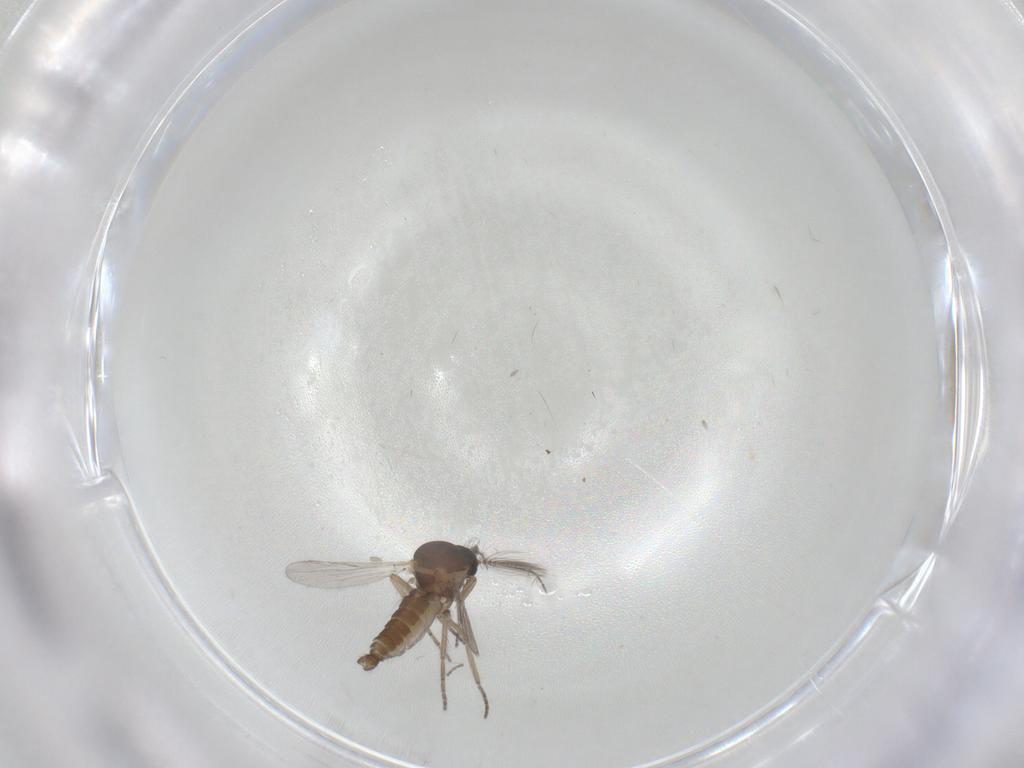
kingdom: Animalia
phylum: Arthropoda
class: Insecta
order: Diptera
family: Ceratopogonidae
